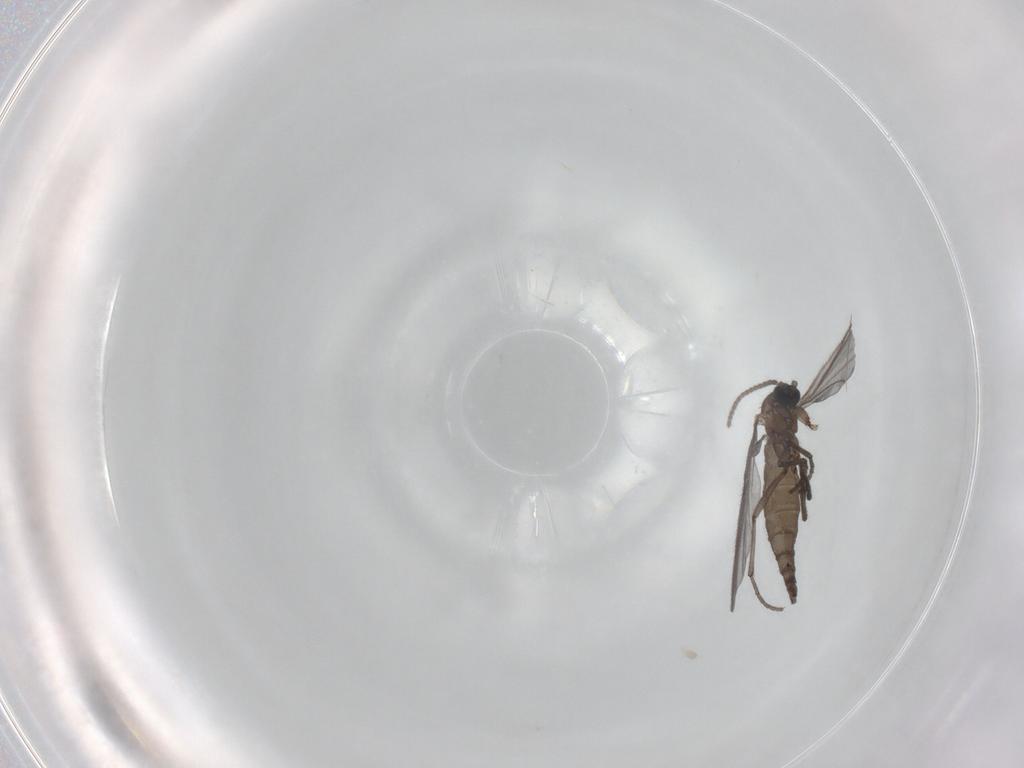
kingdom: Animalia
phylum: Arthropoda
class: Insecta
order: Diptera
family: Sciaridae
